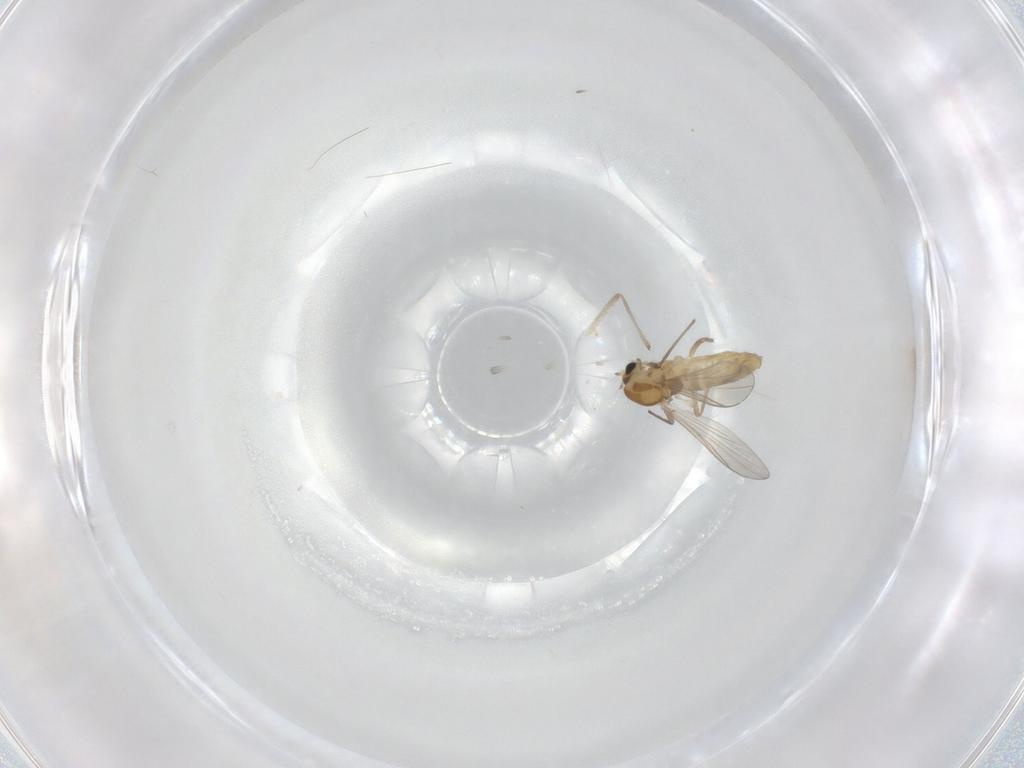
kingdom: Animalia
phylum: Arthropoda
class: Insecta
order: Diptera
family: Chironomidae
